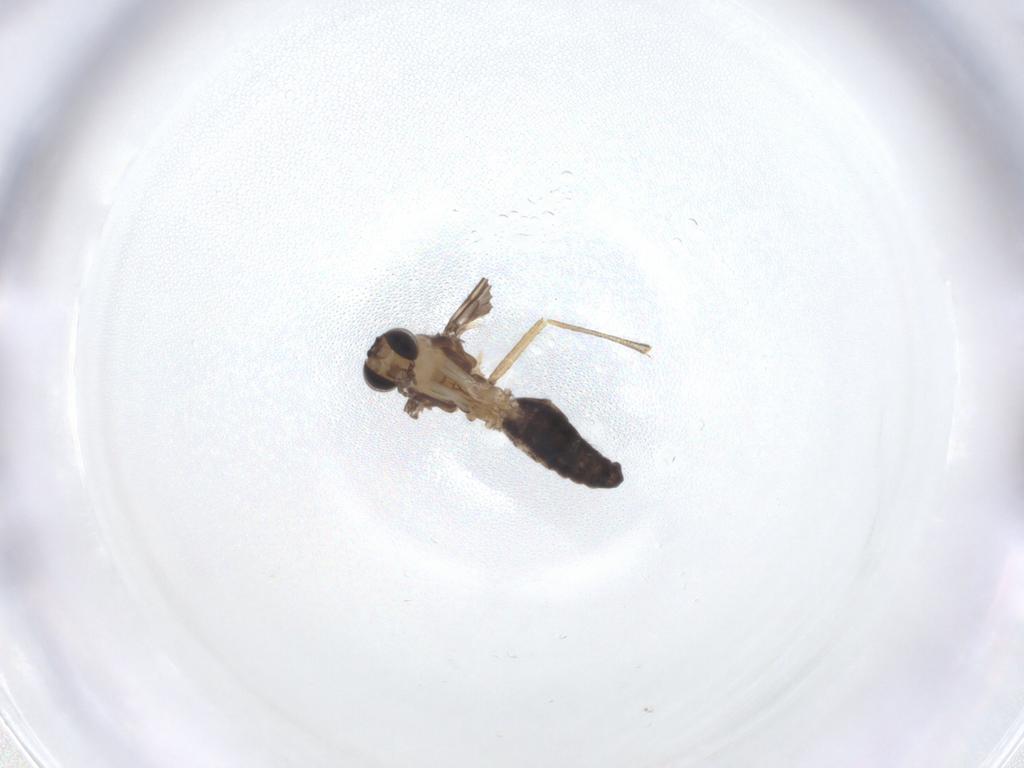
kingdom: Animalia
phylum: Arthropoda
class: Insecta
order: Diptera
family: Keroplatidae
